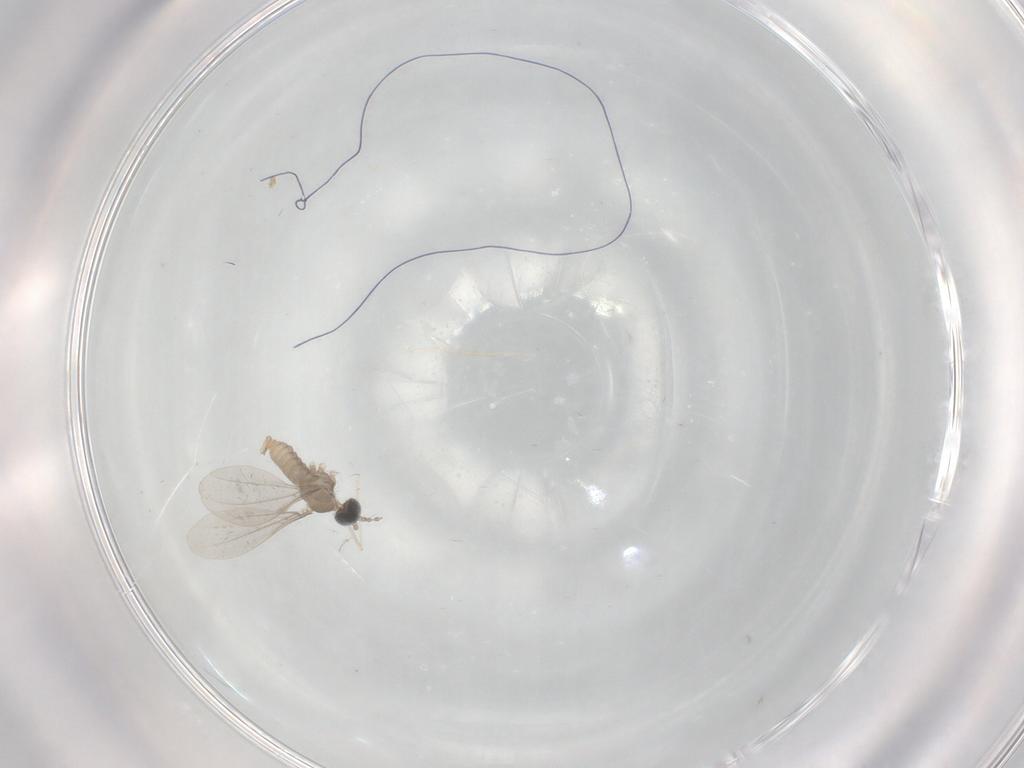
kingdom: Animalia
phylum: Arthropoda
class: Insecta
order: Diptera
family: Cecidomyiidae
